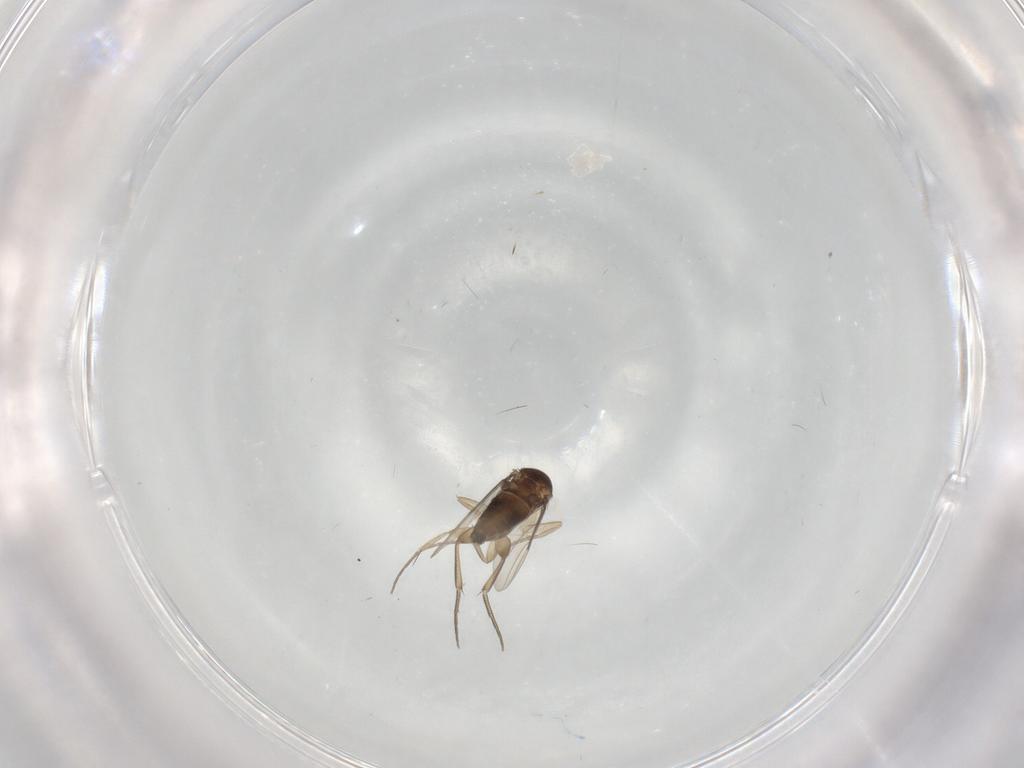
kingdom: Animalia
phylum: Arthropoda
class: Insecta
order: Diptera
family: Phoridae
